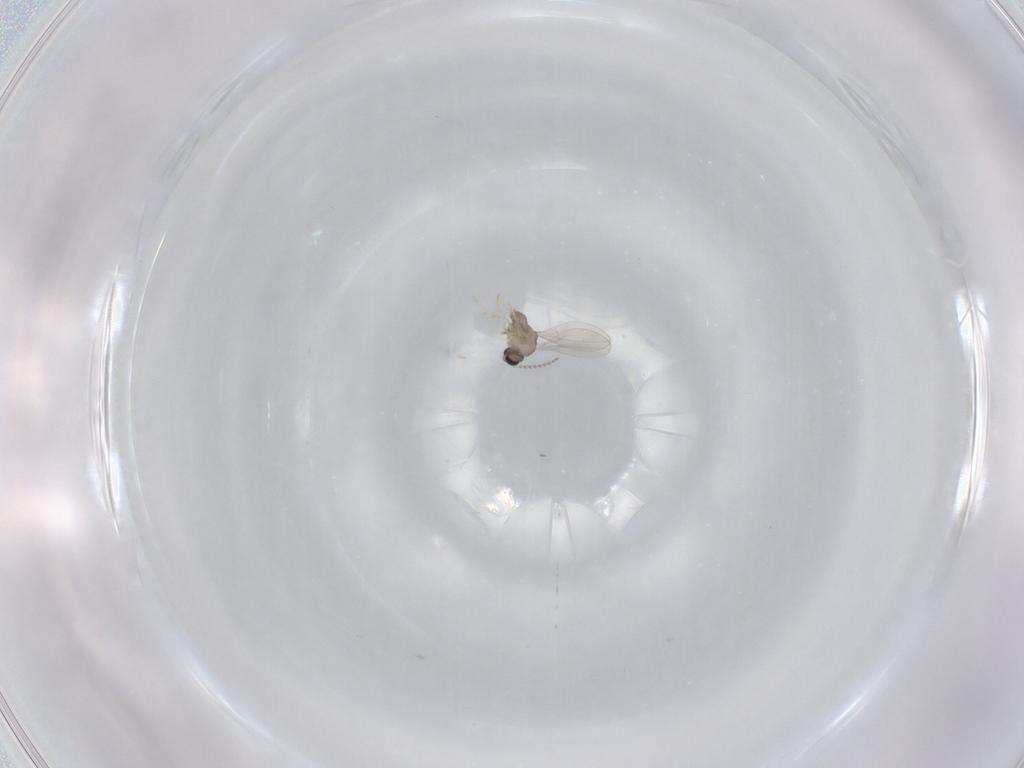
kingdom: Animalia
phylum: Arthropoda
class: Insecta
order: Diptera
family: Cecidomyiidae
